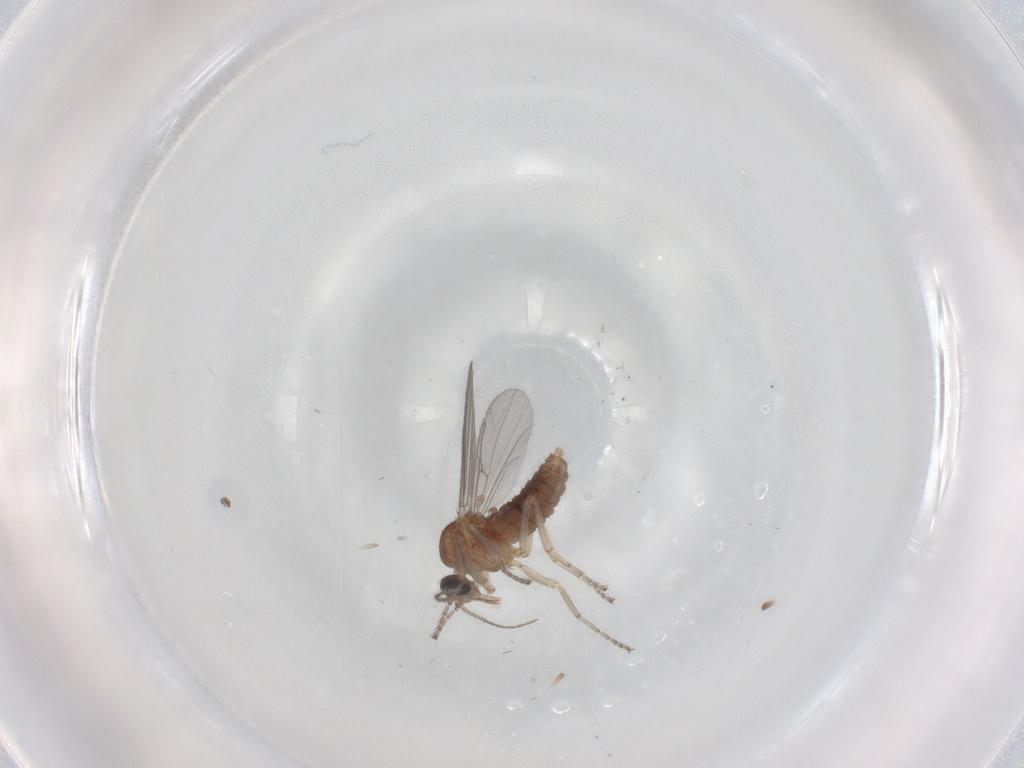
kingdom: Animalia
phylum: Arthropoda
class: Insecta
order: Diptera
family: Ceratopogonidae
